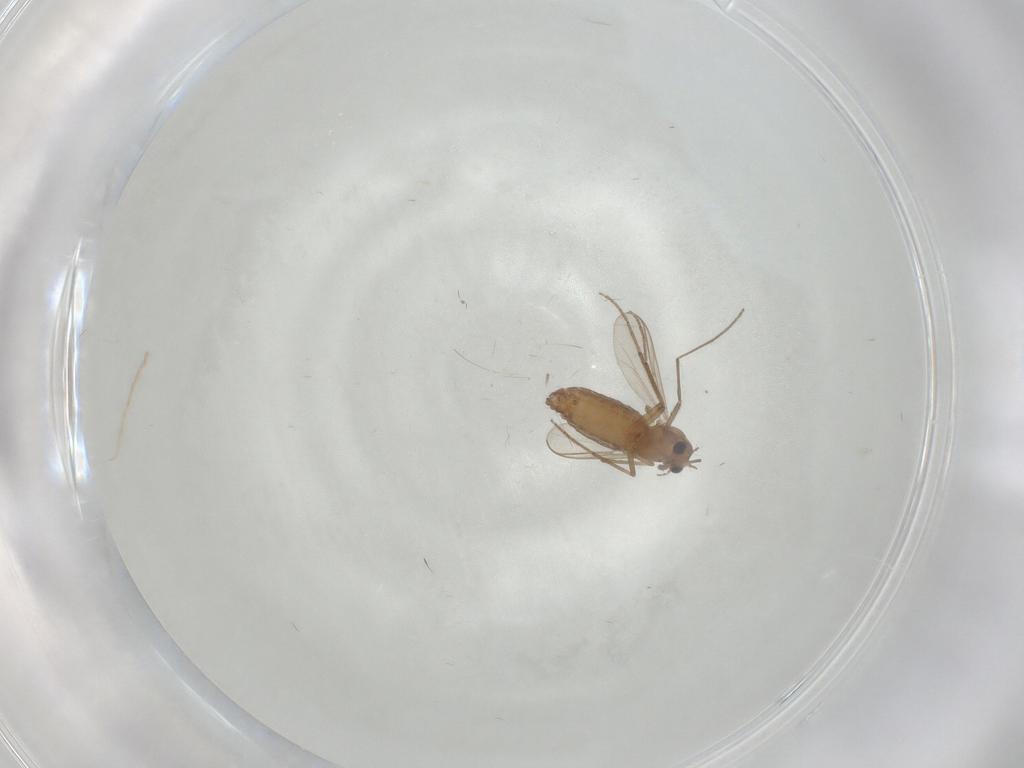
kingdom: Animalia
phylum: Arthropoda
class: Insecta
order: Diptera
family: Chironomidae
